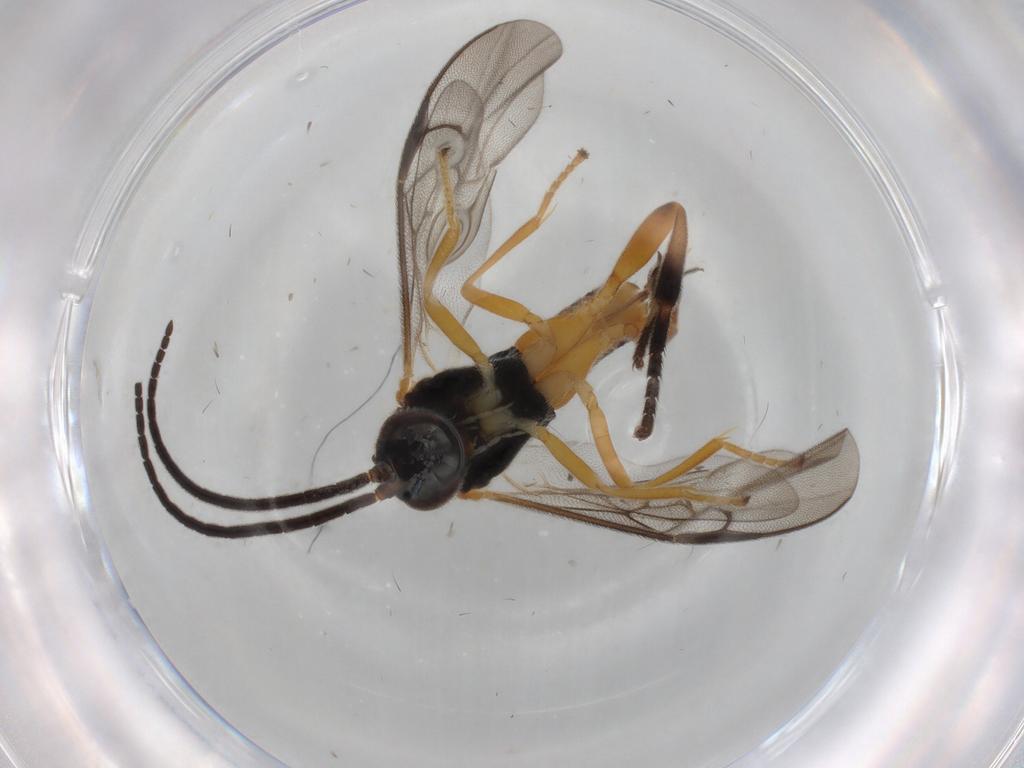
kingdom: Animalia
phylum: Arthropoda
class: Insecta
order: Hymenoptera
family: Braconidae
